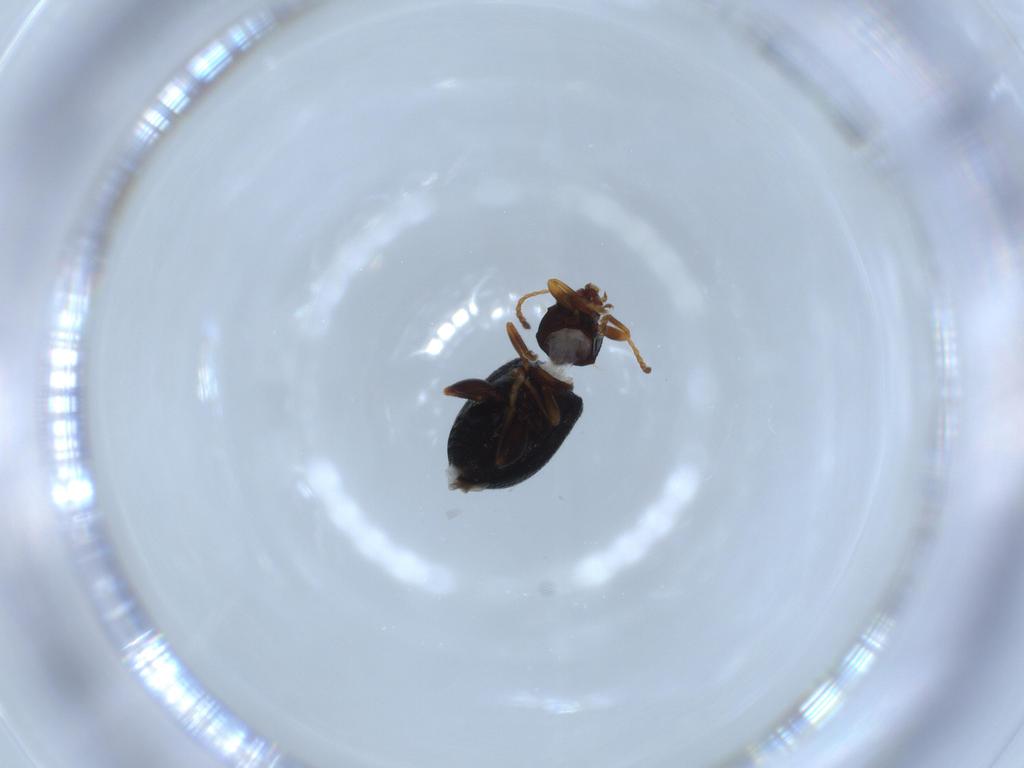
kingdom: Animalia
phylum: Arthropoda
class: Insecta
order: Coleoptera
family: Chrysomelidae
